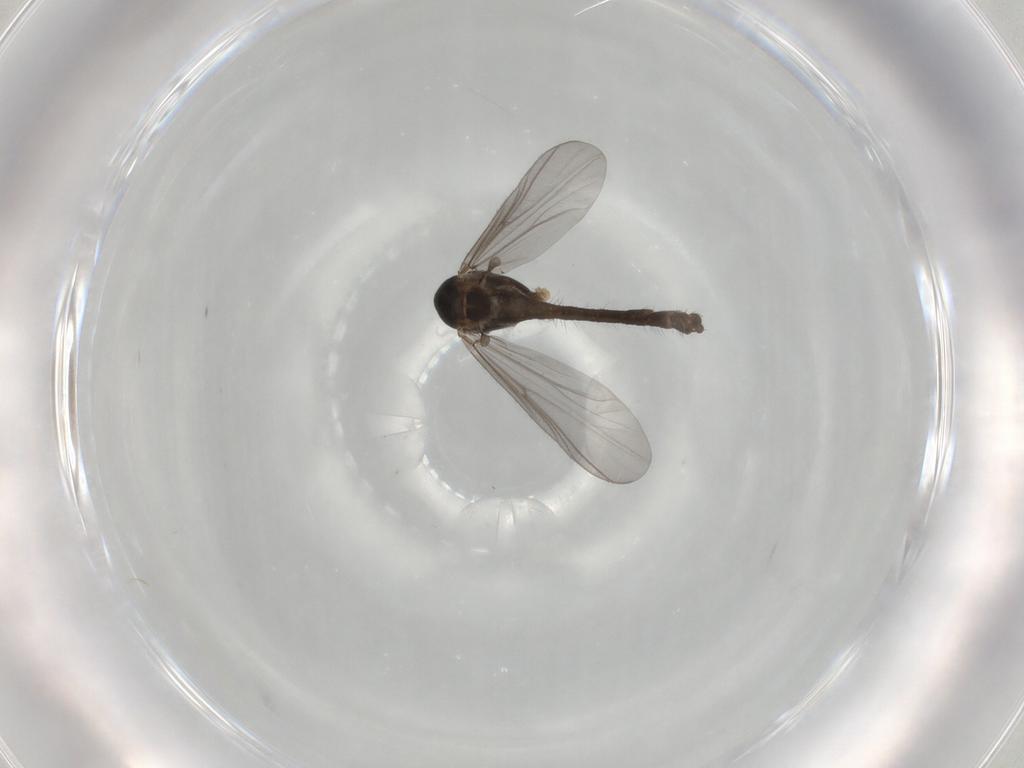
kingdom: Animalia
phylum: Arthropoda
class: Insecta
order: Diptera
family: Chironomidae
